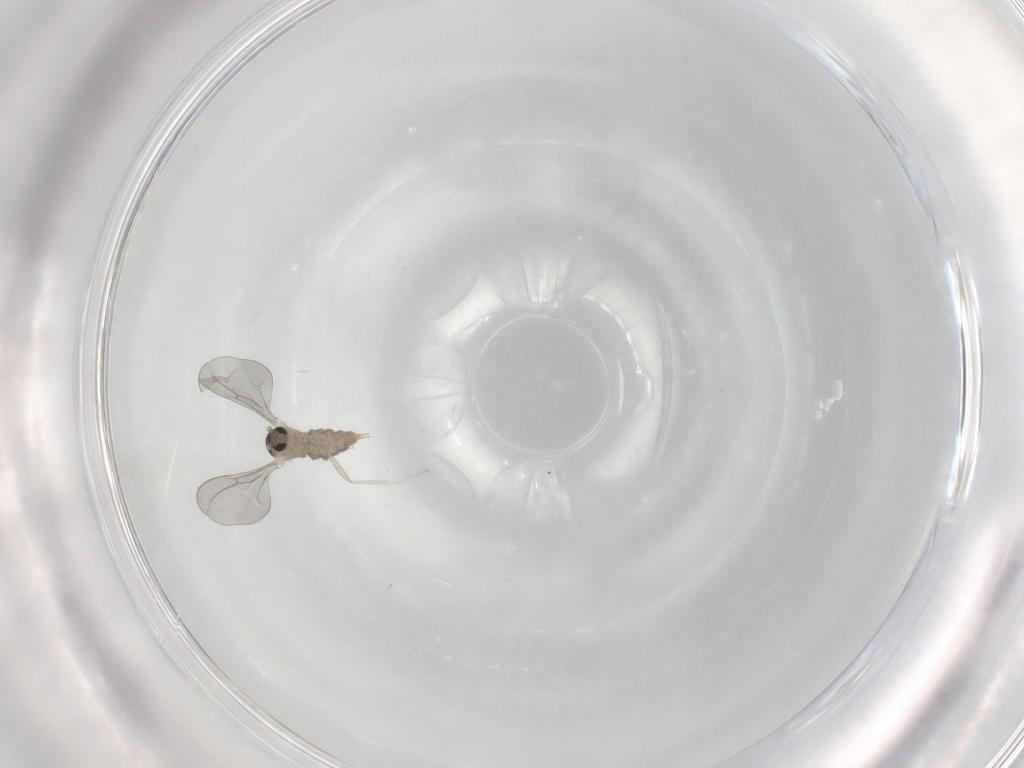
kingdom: Animalia
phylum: Arthropoda
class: Insecta
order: Diptera
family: Cecidomyiidae
